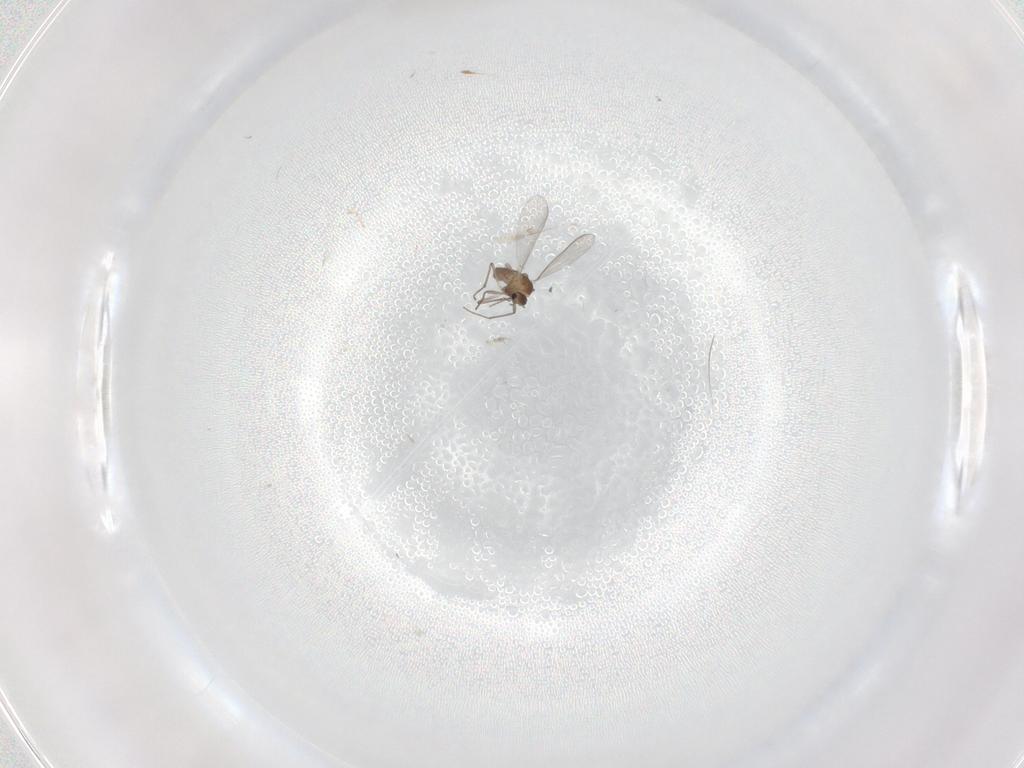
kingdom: Animalia
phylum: Arthropoda
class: Insecta
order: Diptera
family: Chironomidae
